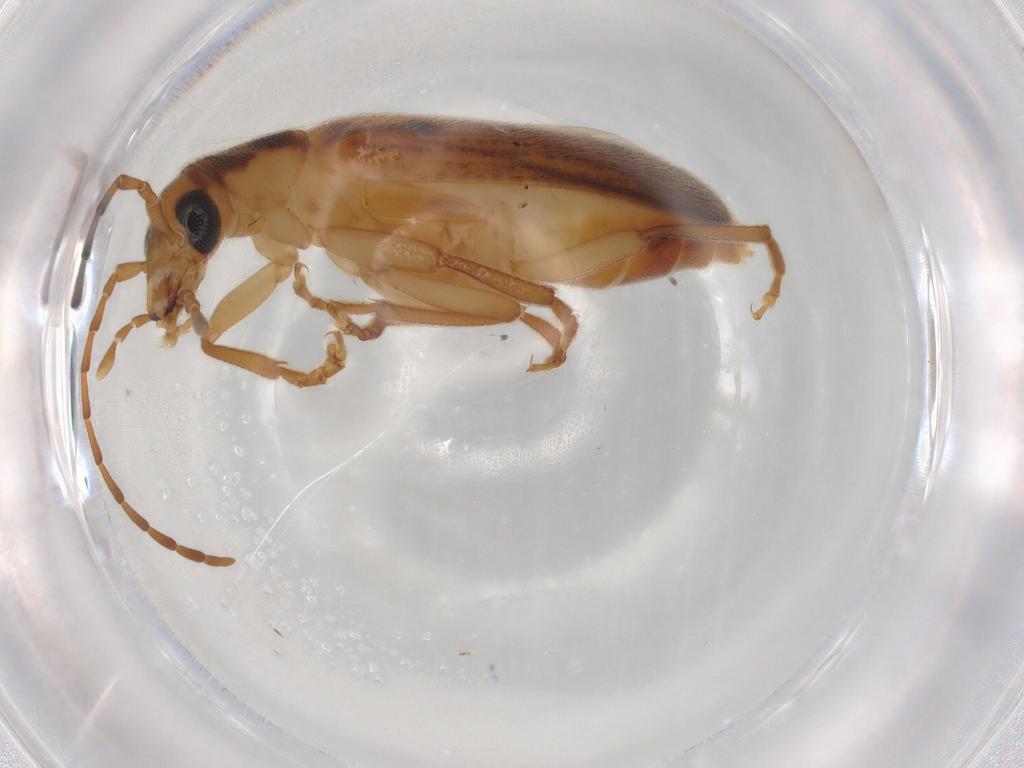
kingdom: Animalia
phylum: Arthropoda
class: Insecta
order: Coleoptera
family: Oedemeridae
